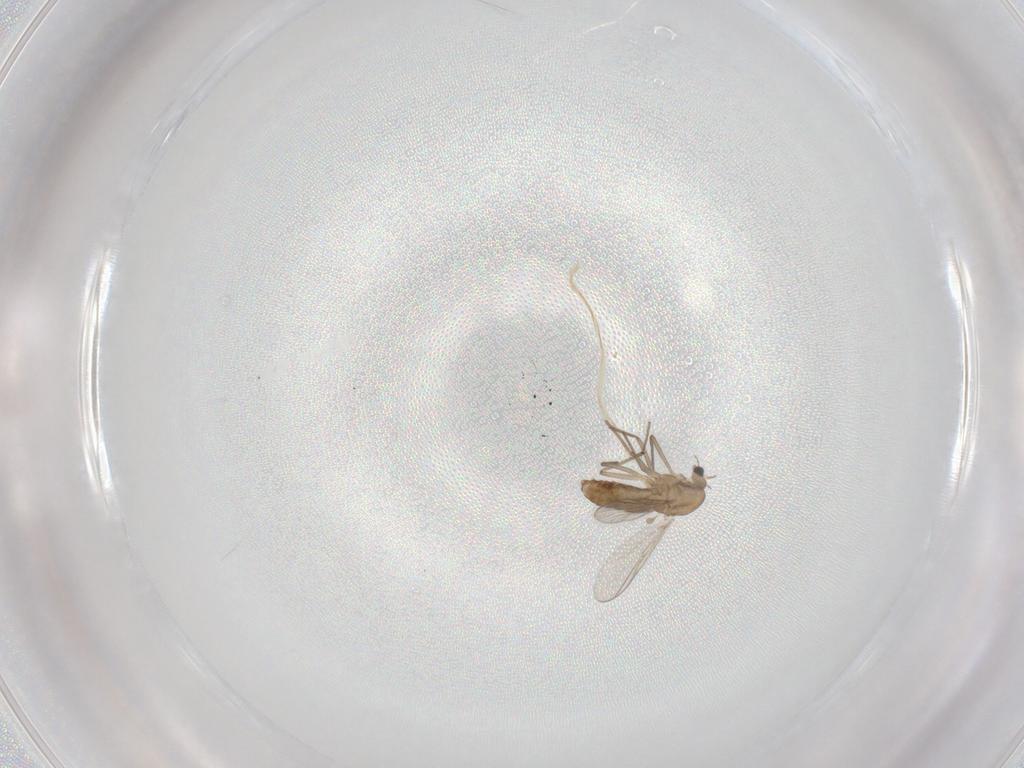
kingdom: Animalia
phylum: Arthropoda
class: Insecta
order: Diptera
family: Chironomidae
